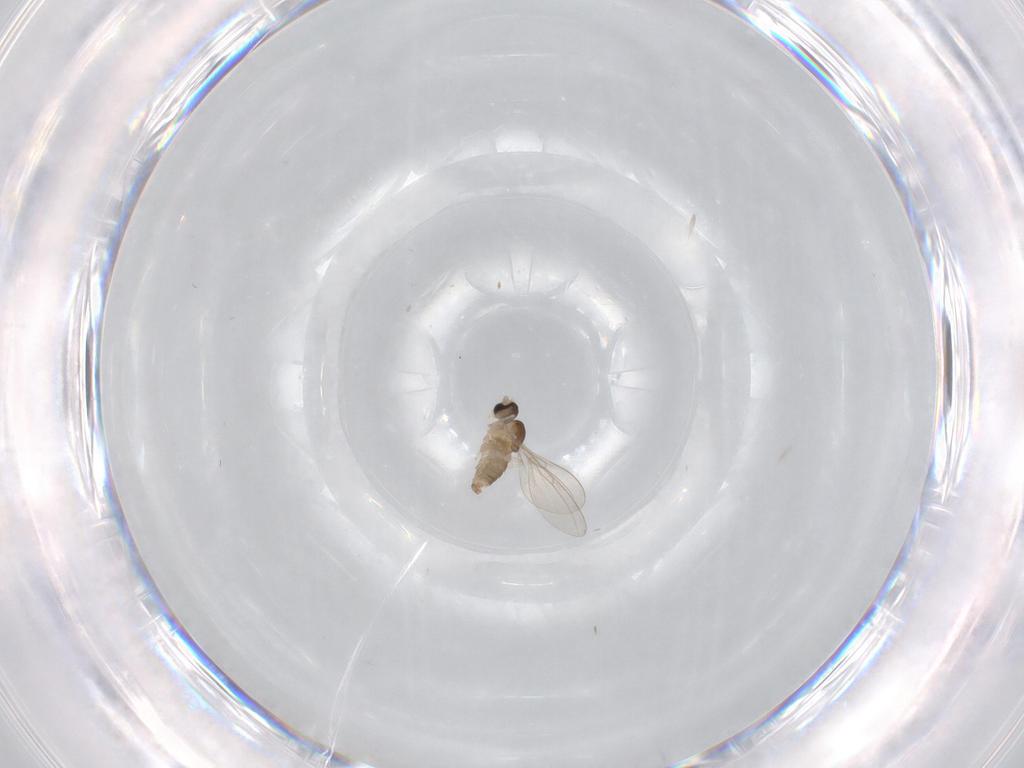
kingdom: Animalia
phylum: Arthropoda
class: Insecta
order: Diptera
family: Cecidomyiidae
